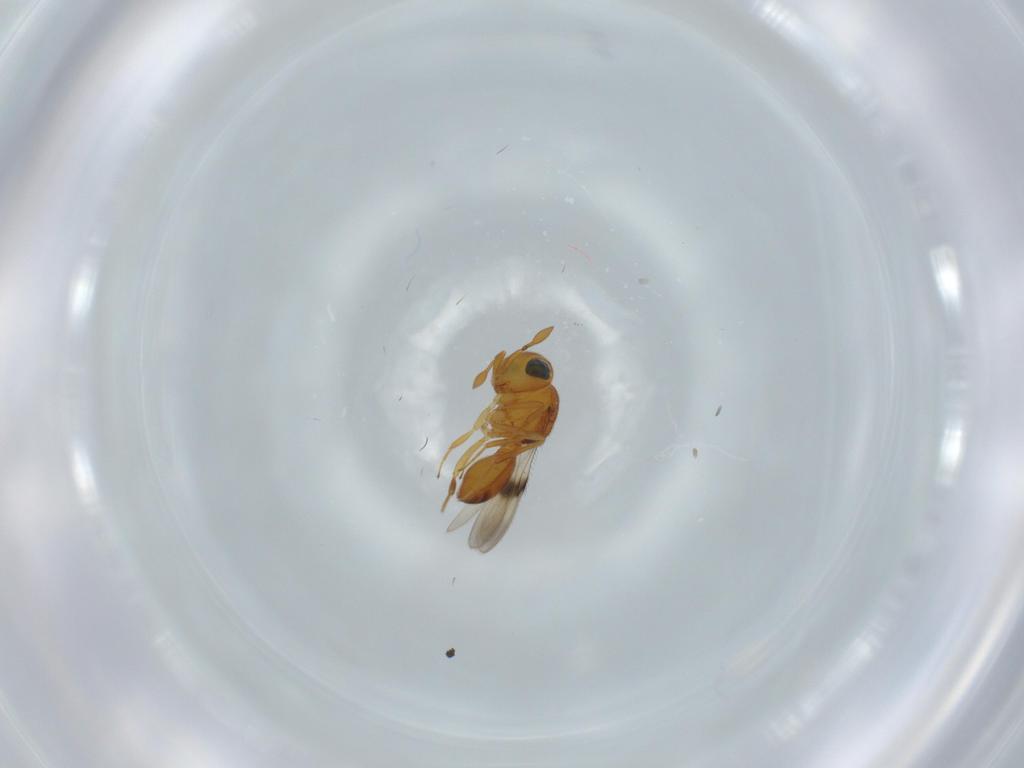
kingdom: Animalia
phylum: Arthropoda
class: Insecta
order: Hymenoptera
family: Scelionidae
